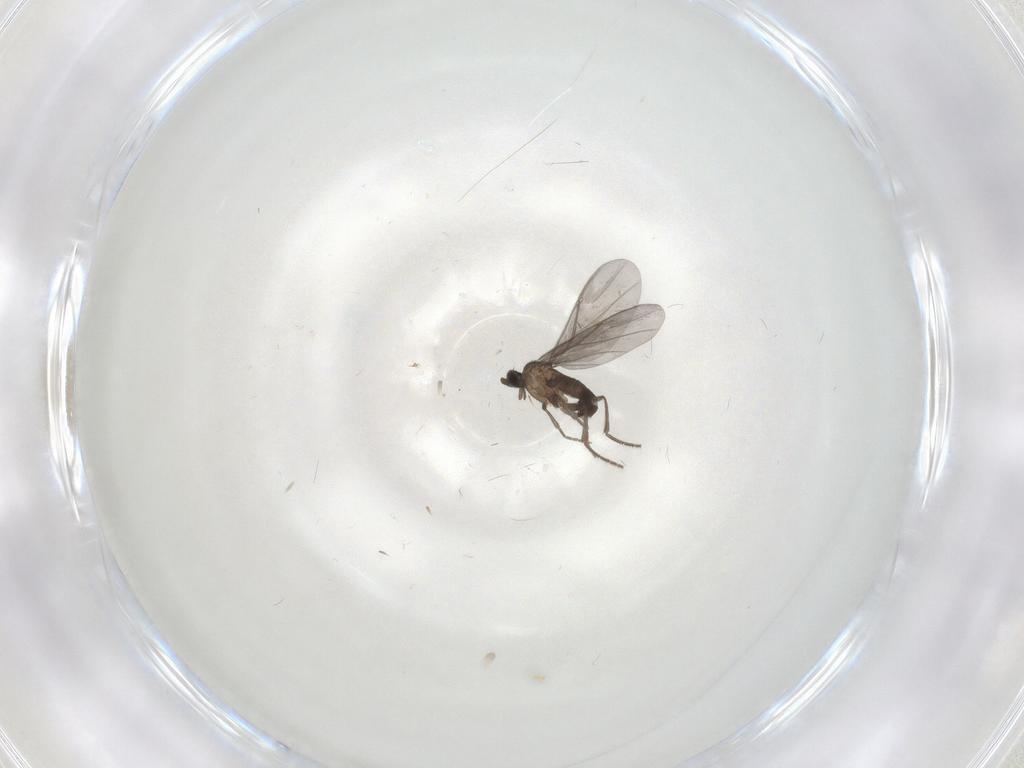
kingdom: Animalia
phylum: Arthropoda
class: Insecta
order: Diptera
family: Phoridae
